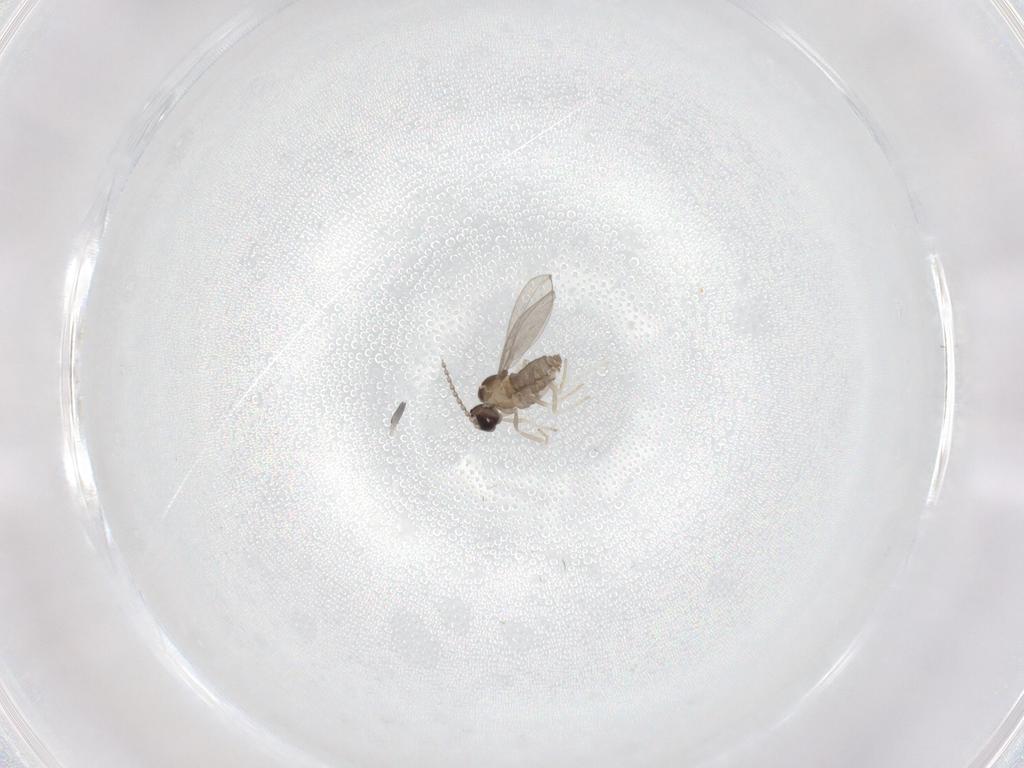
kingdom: Animalia
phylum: Arthropoda
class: Insecta
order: Diptera
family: Cecidomyiidae
